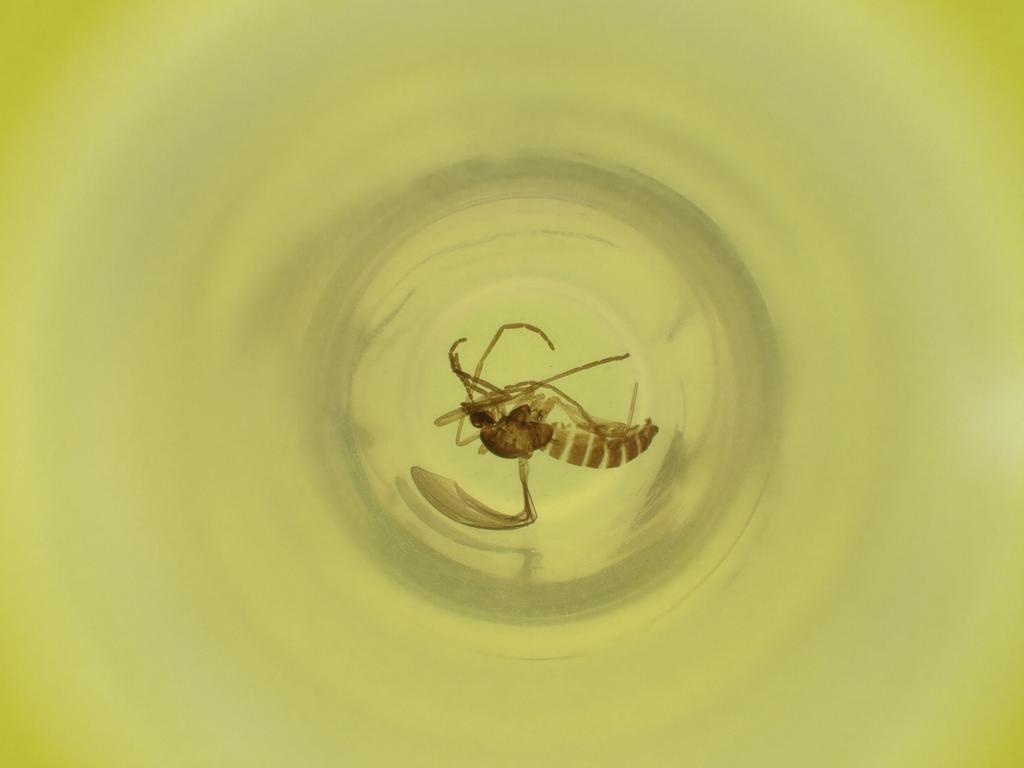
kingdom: Animalia
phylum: Arthropoda
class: Insecta
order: Diptera
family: Cecidomyiidae
